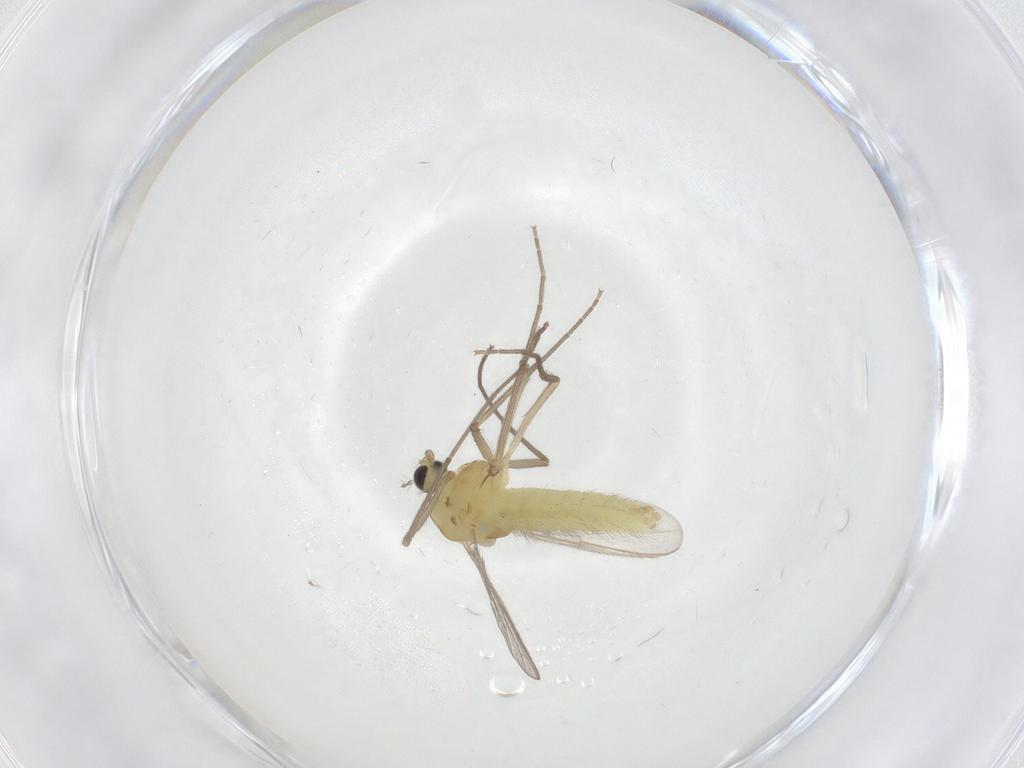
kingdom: Animalia
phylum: Arthropoda
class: Insecta
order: Diptera
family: Chironomidae
